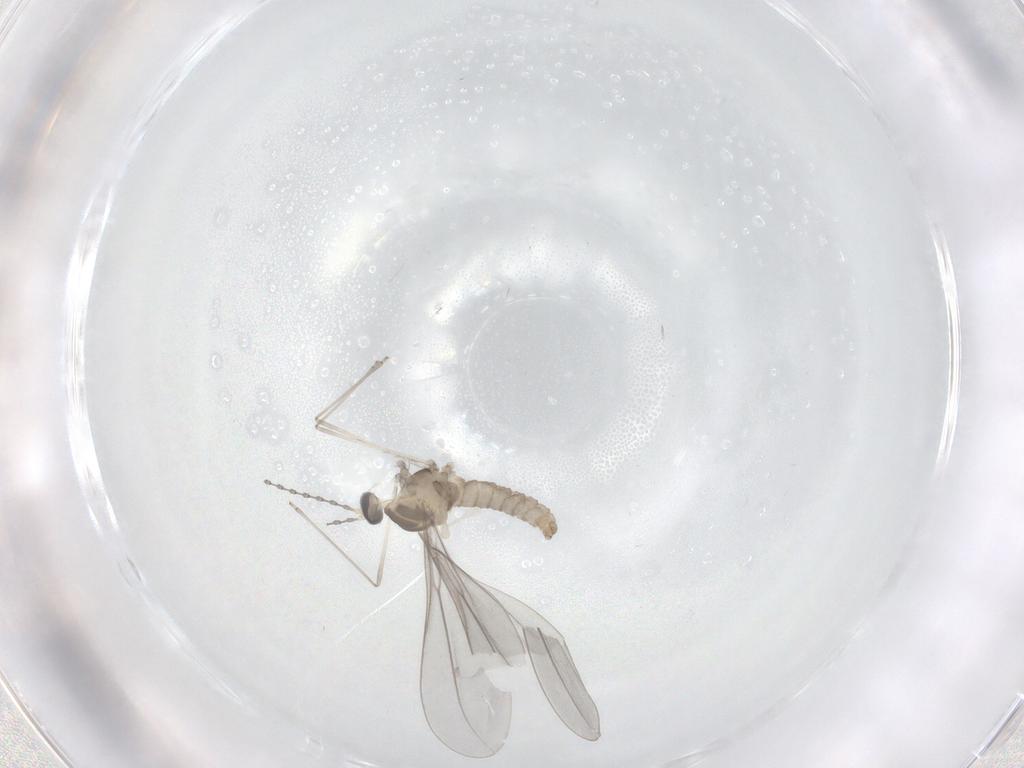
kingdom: Animalia
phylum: Arthropoda
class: Insecta
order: Diptera
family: Cecidomyiidae
